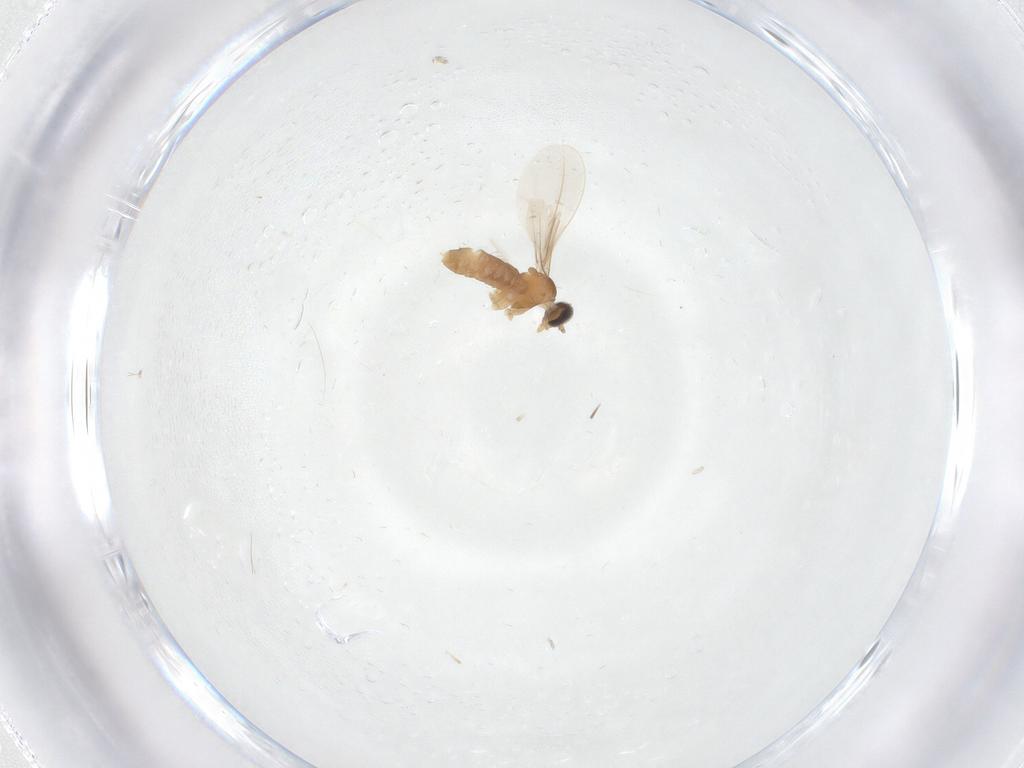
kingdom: Animalia
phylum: Arthropoda
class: Insecta
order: Diptera
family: Cecidomyiidae
